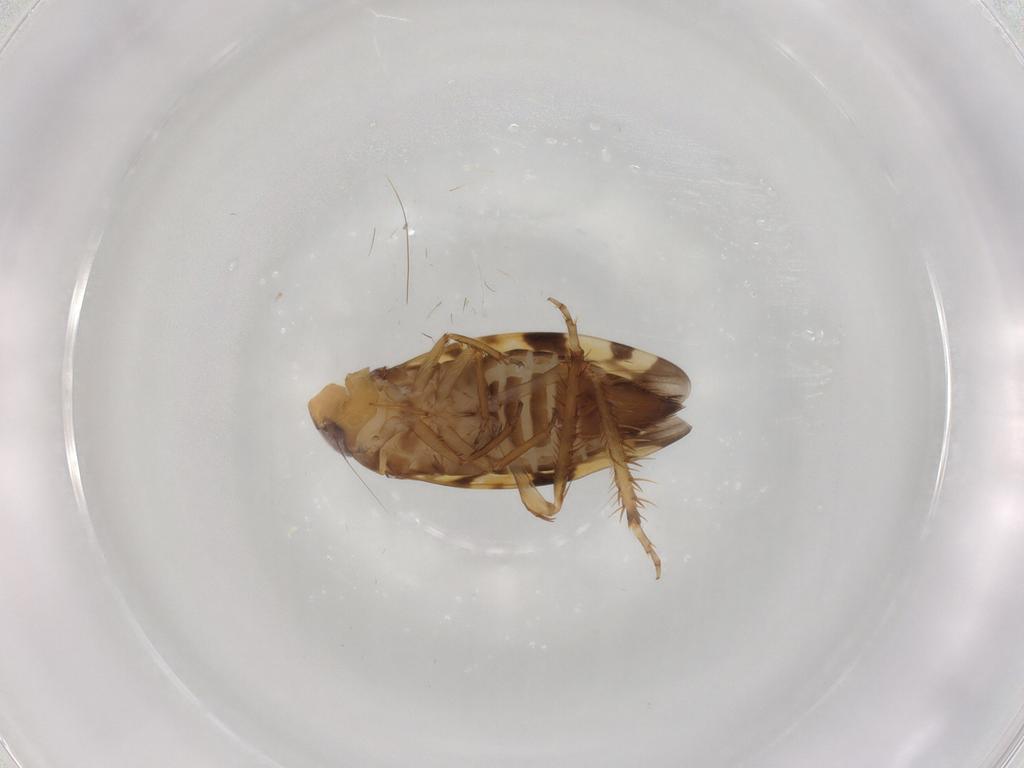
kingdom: Animalia
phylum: Arthropoda
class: Insecta
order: Hemiptera
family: Cicadellidae
